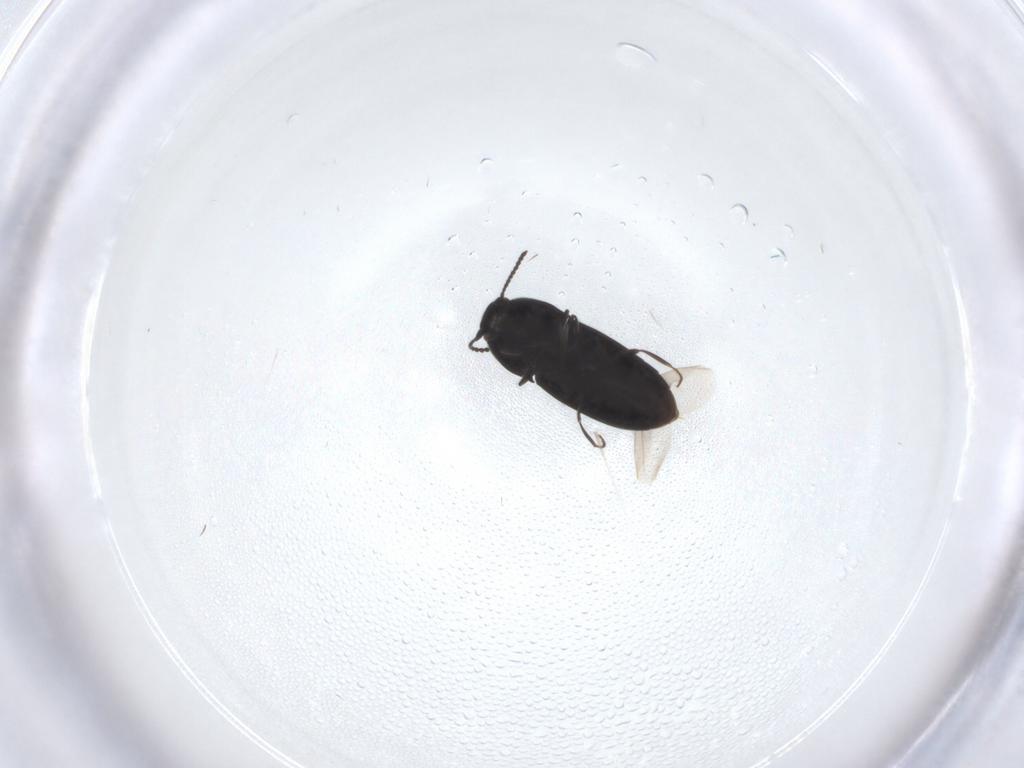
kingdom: Animalia
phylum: Arthropoda
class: Insecta
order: Coleoptera
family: Elateridae
